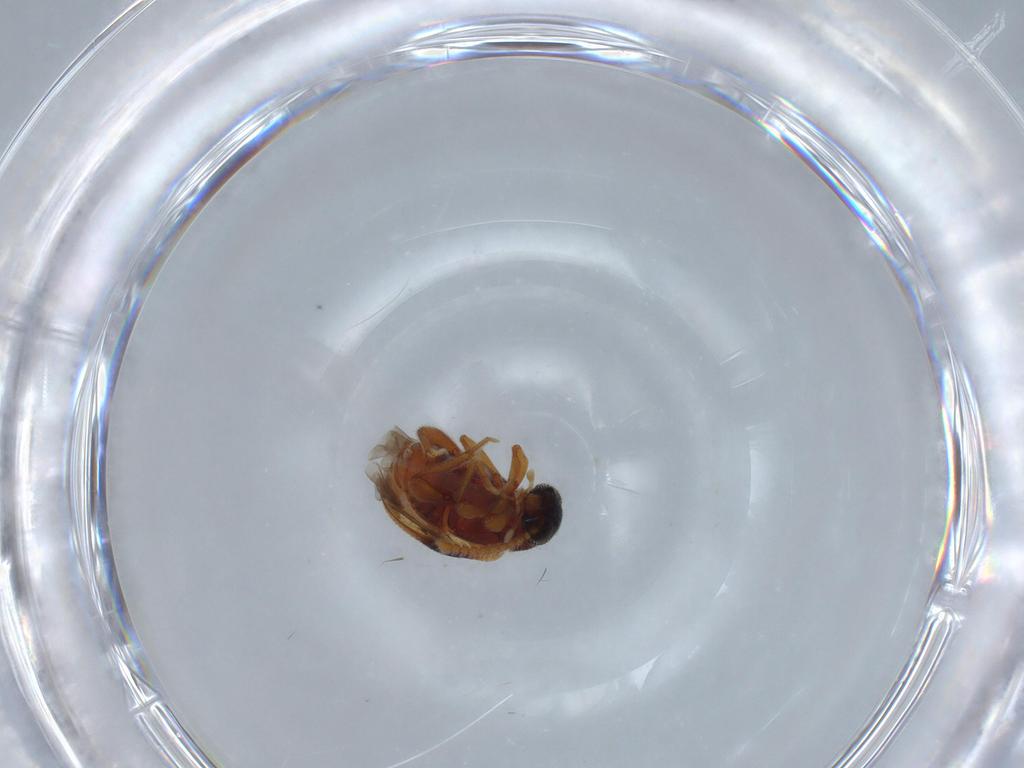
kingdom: Animalia
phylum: Arthropoda
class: Insecta
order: Coleoptera
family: Aderidae
